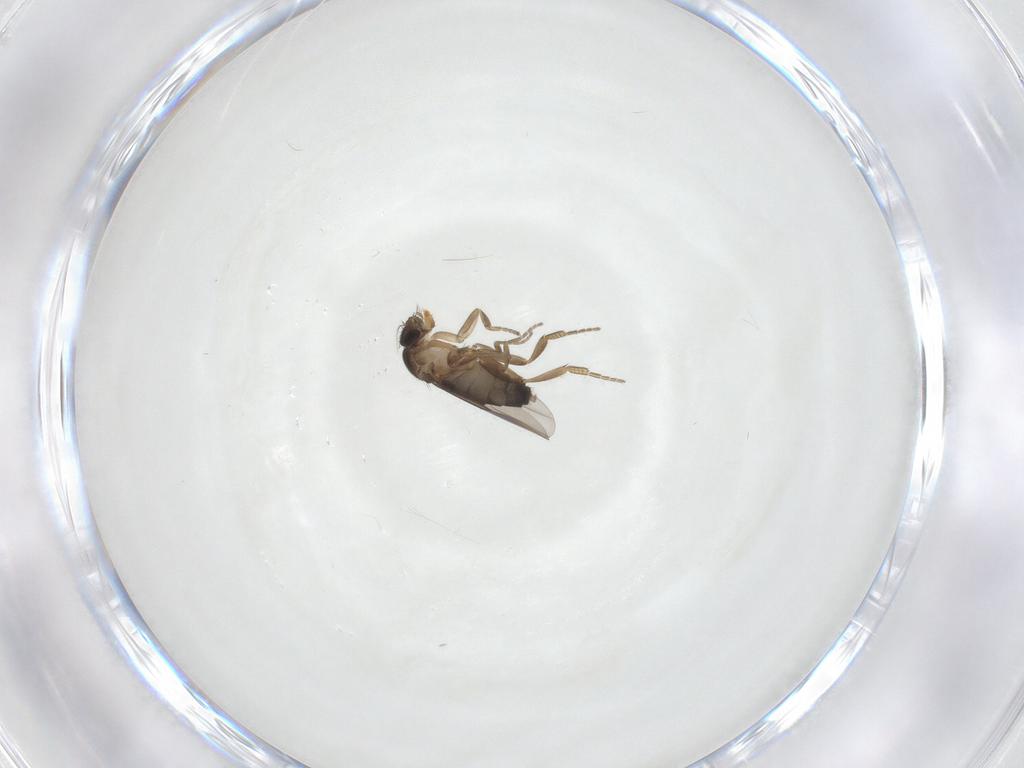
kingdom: Animalia
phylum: Arthropoda
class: Insecta
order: Diptera
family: Phoridae
